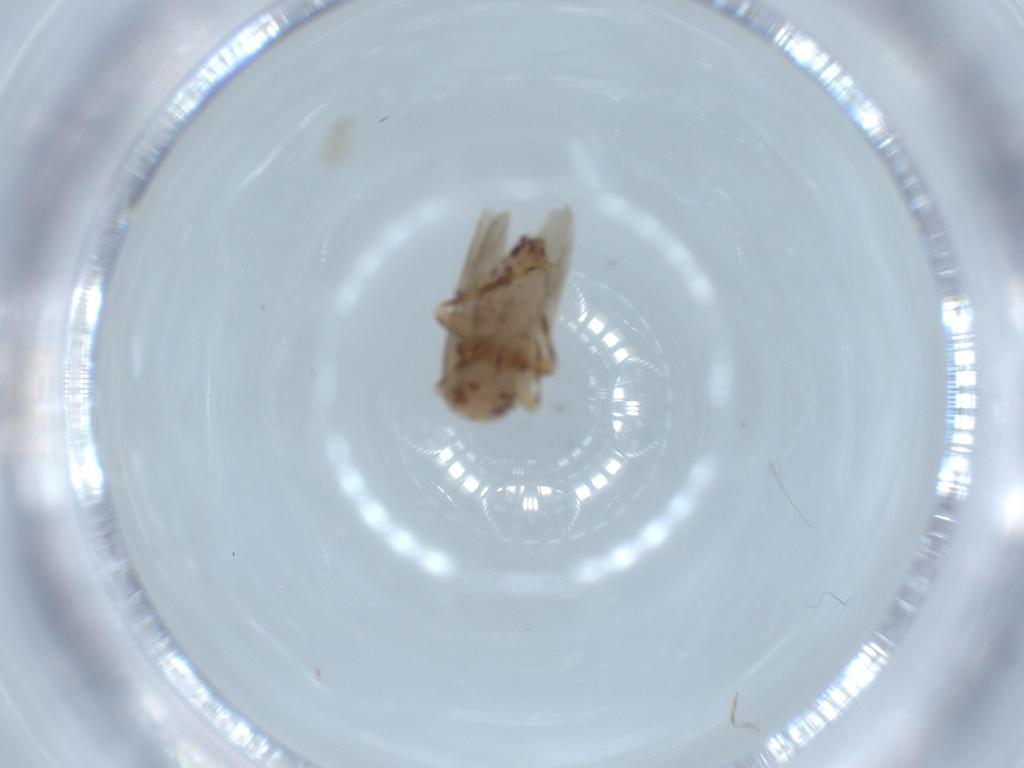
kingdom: Animalia
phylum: Arthropoda
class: Insecta
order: Psocodea
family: Lepidopsocidae
